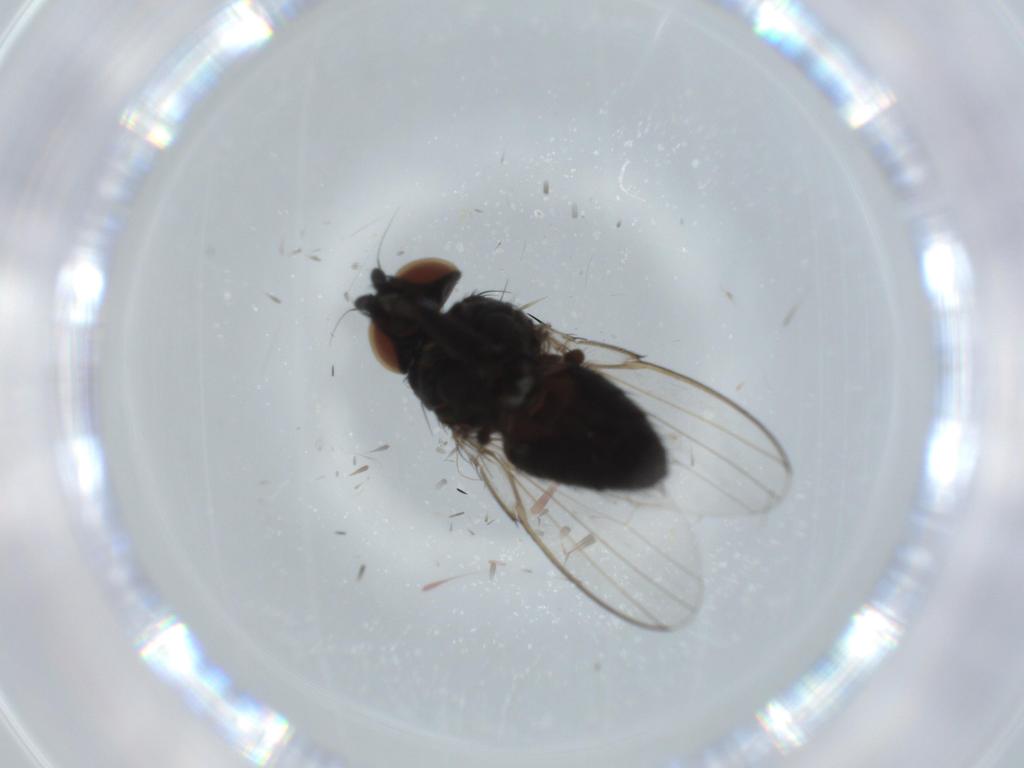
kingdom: Animalia
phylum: Arthropoda
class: Insecta
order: Diptera
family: Milichiidae
